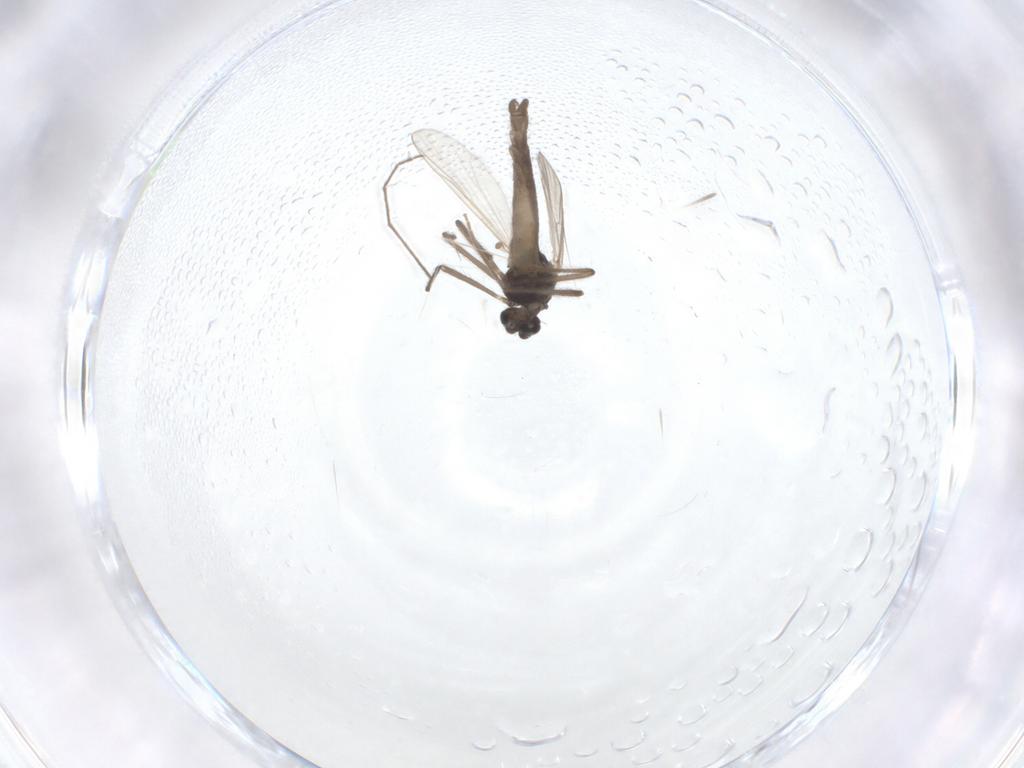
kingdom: Animalia
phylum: Arthropoda
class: Insecta
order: Diptera
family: Chironomidae
